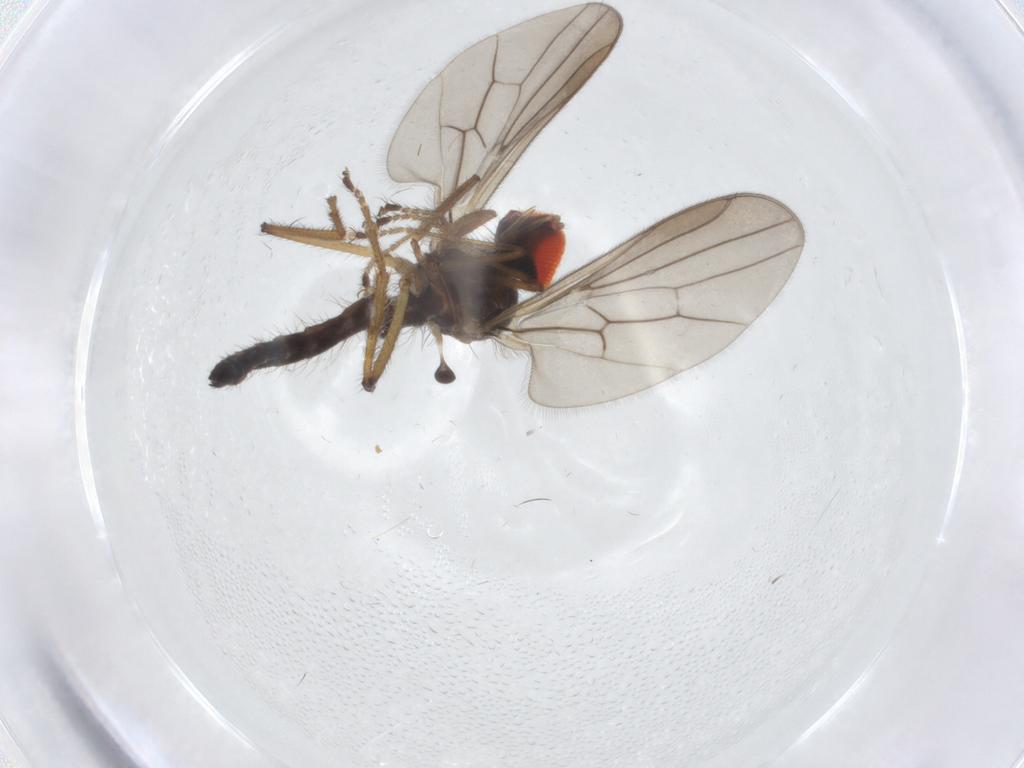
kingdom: Animalia
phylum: Arthropoda
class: Insecta
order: Diptera
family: Hybotidae
